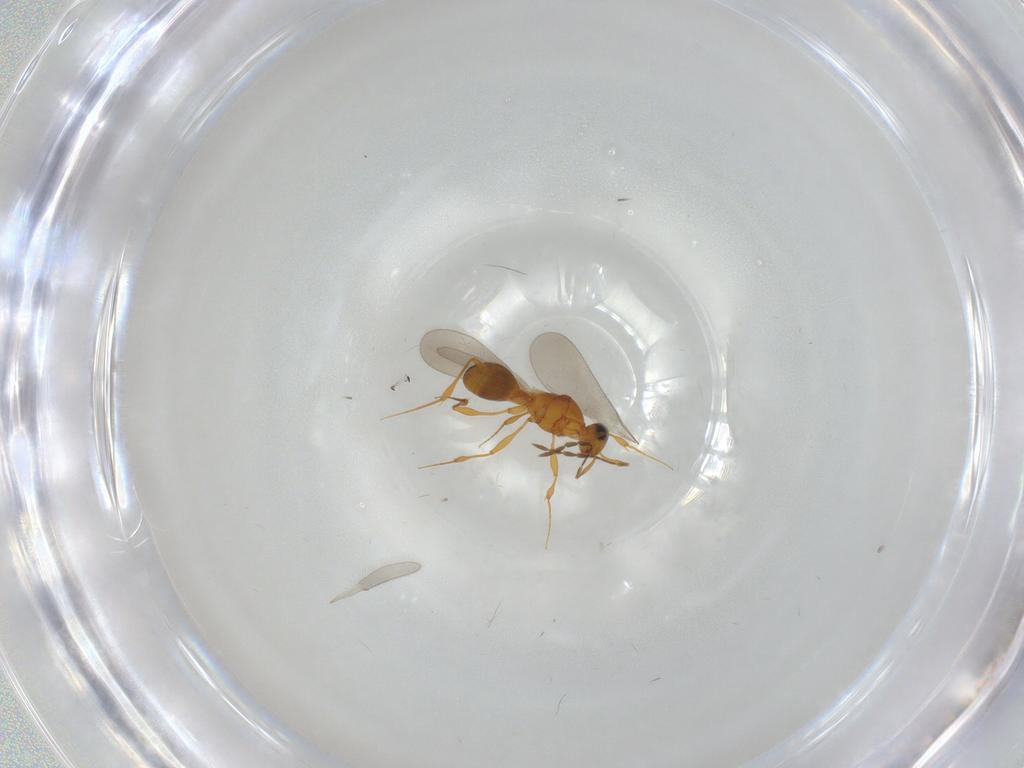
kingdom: Animalia
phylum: Arthropoda
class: Insecta
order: Hymenoptera
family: Platygastridae
